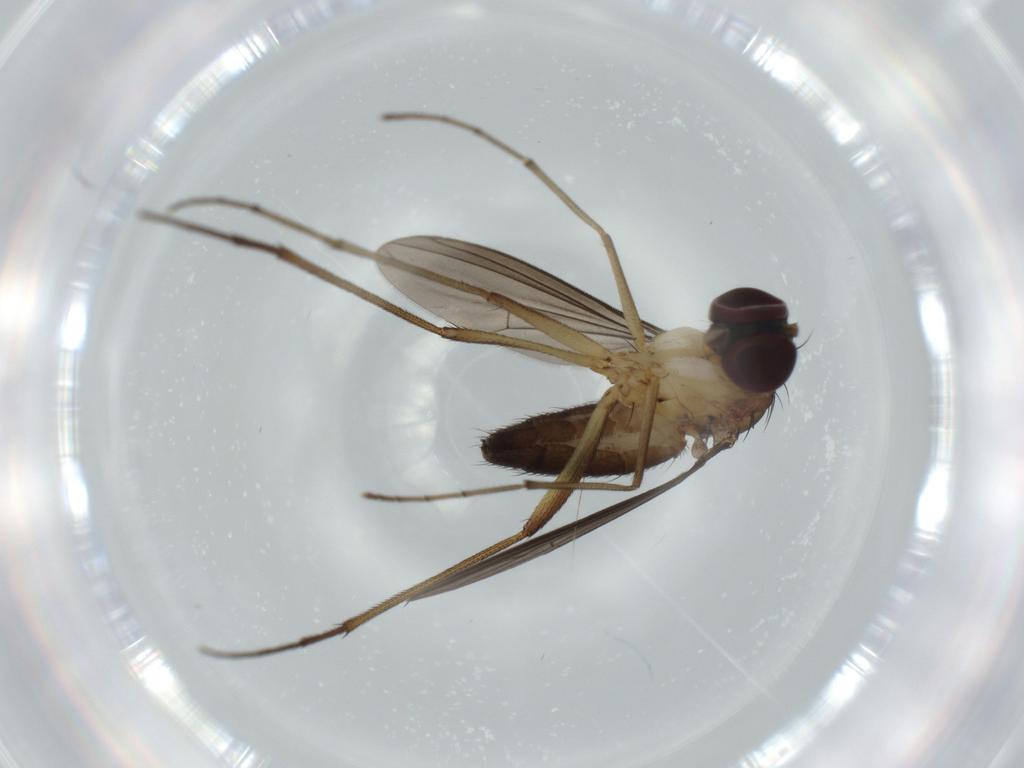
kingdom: Animalia
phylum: Arthropoda
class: Insecta
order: Diptera
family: Dolichopodidae
